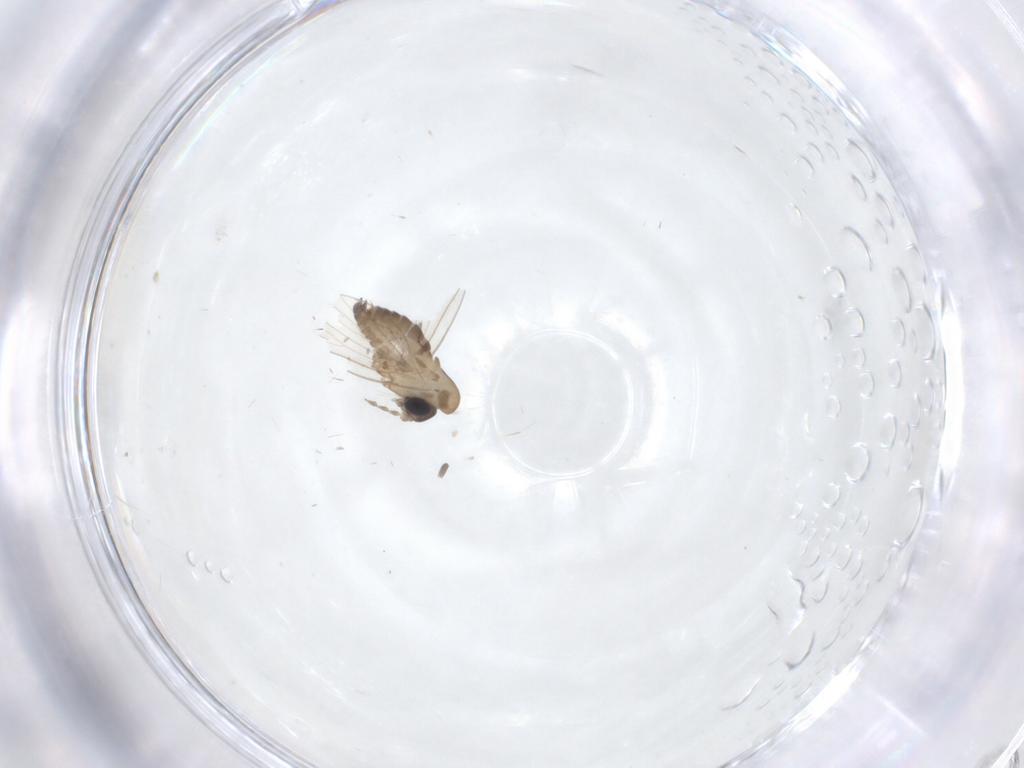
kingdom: Animalia
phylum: Arthropoda
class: Insecta
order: Diptera
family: Psychodidae
